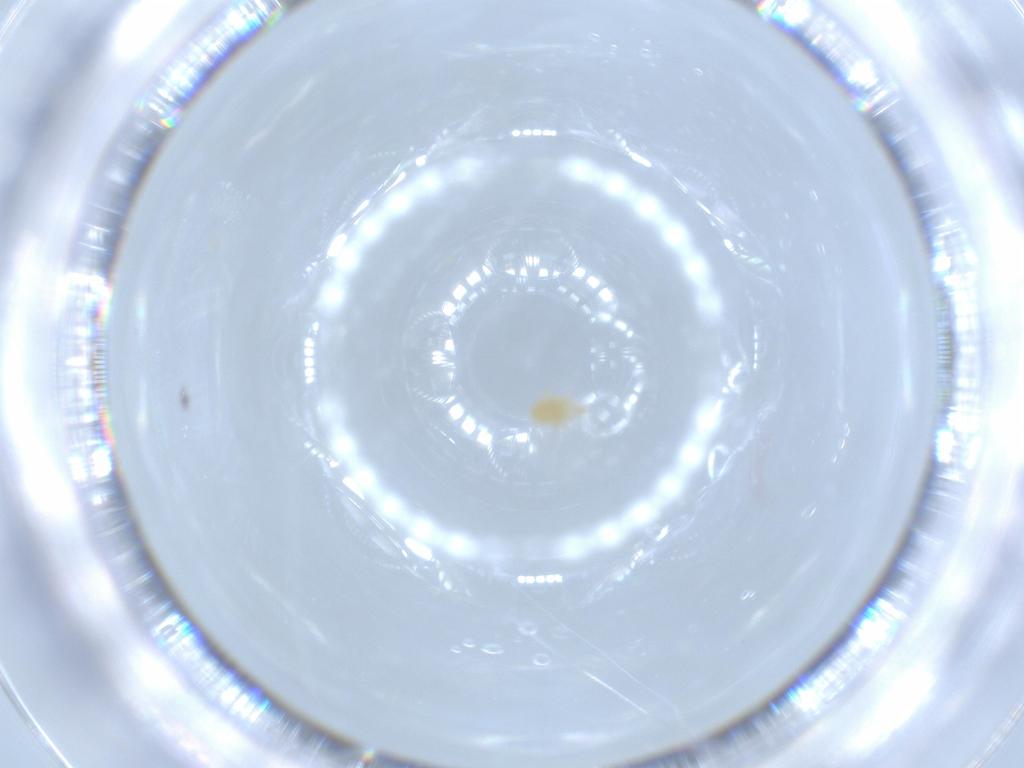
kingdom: Animalia
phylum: Arthropoda
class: Arachnida
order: Mesostigmata
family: Phytoseiidae
